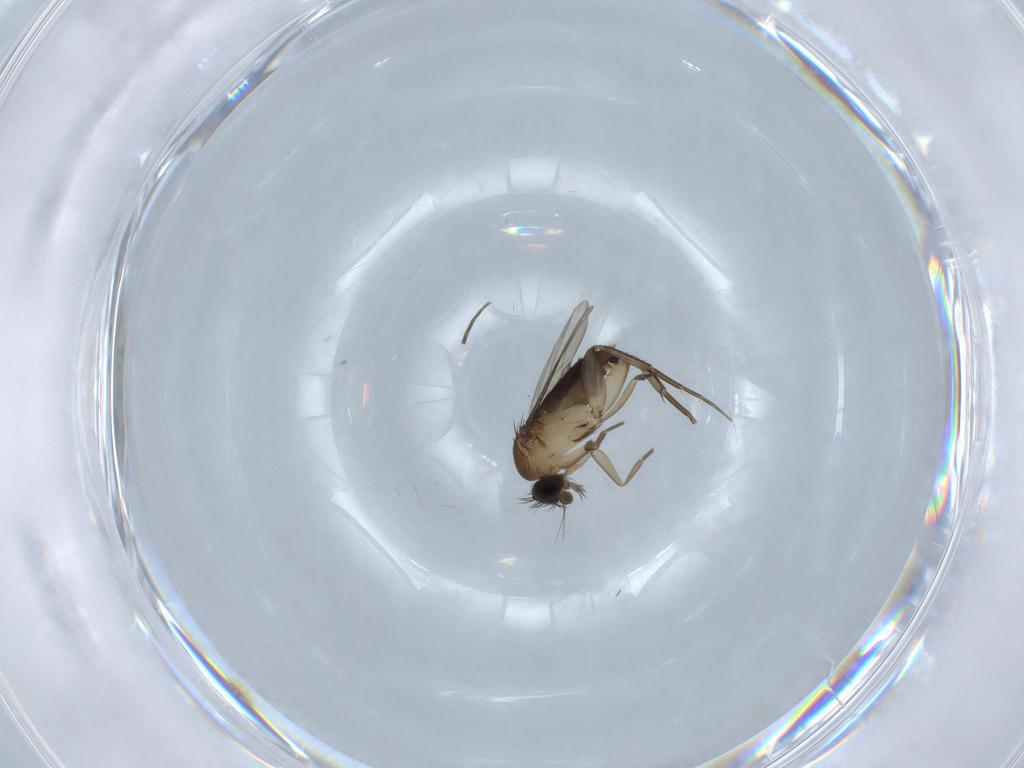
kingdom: Animalia
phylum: Arthropoda
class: Insecta
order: Diptera
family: Phoridae
